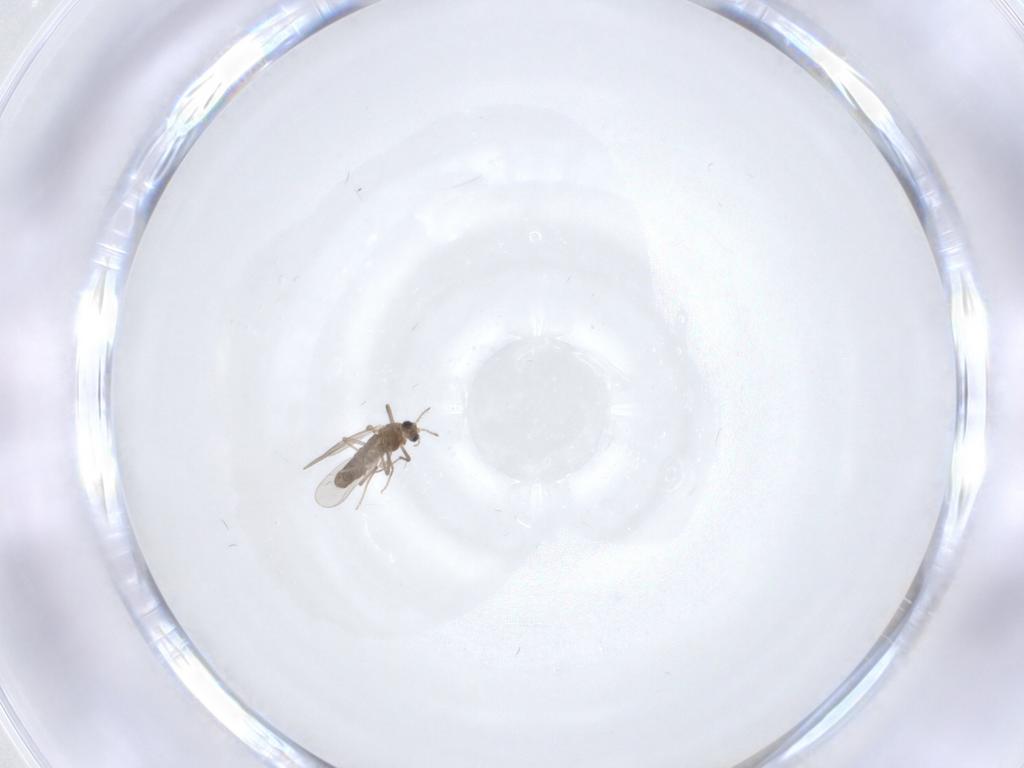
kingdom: Animalia
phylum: Arthropoda
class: Insecta
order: Diptera
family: Chironomidae
